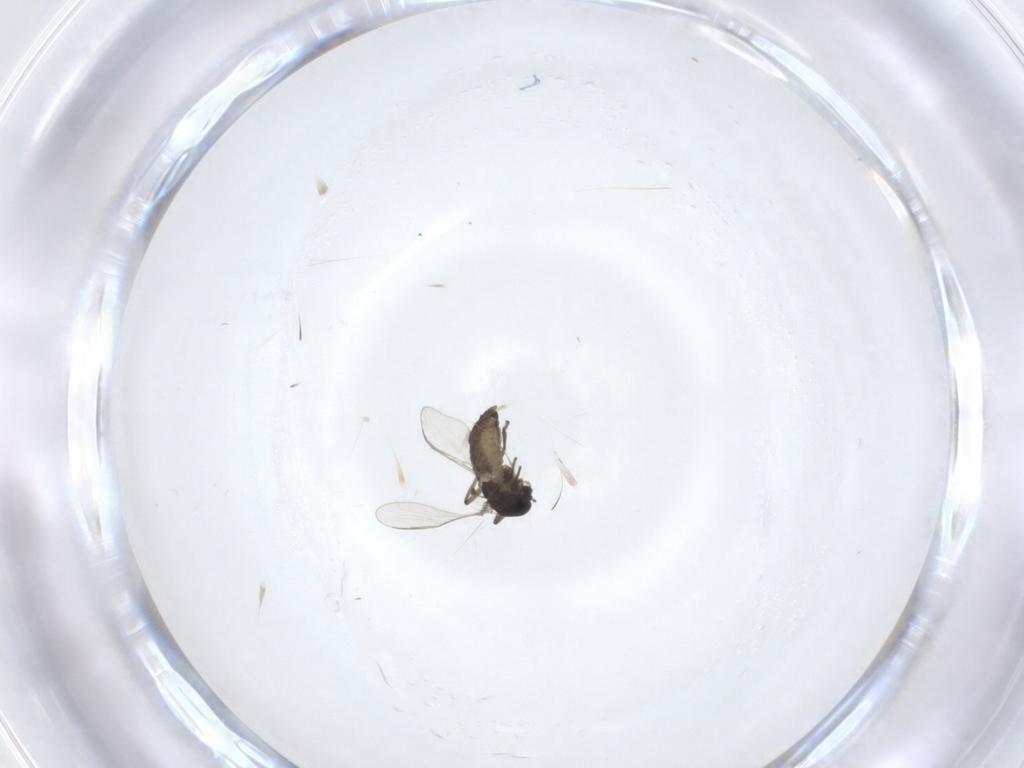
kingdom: Animalia
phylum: Arthropoda
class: Insecta
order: Diptera
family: Chironomidae
